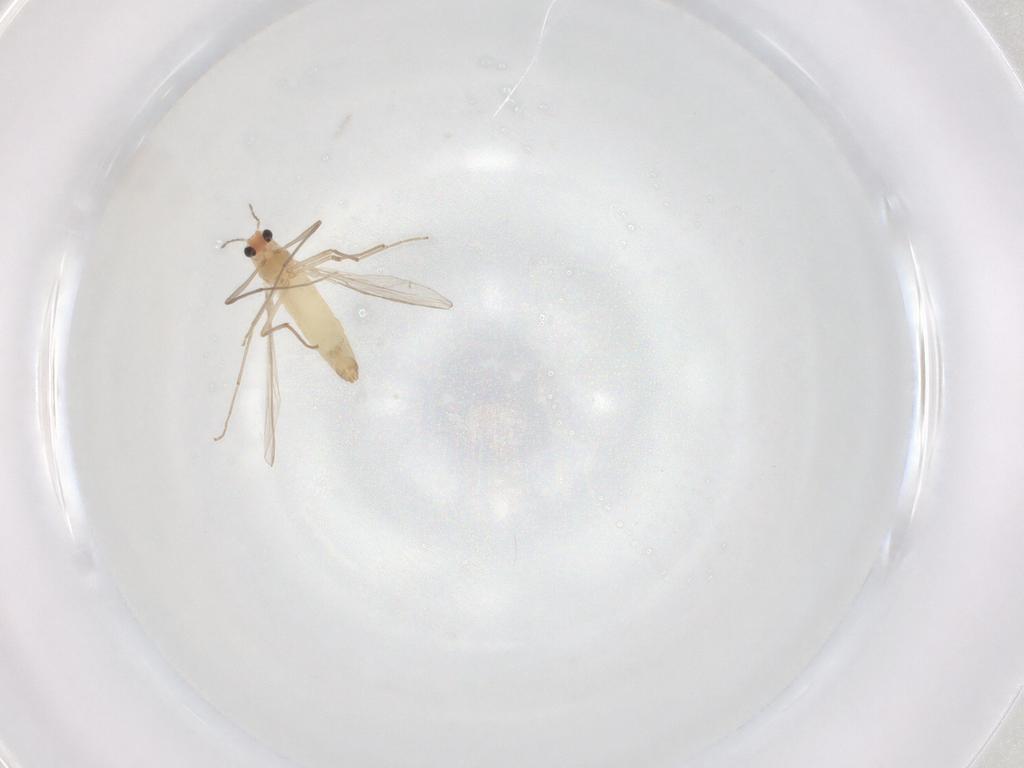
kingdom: Animalia
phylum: Arthropoda
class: Insecta
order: Diptera
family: Chironomidae
